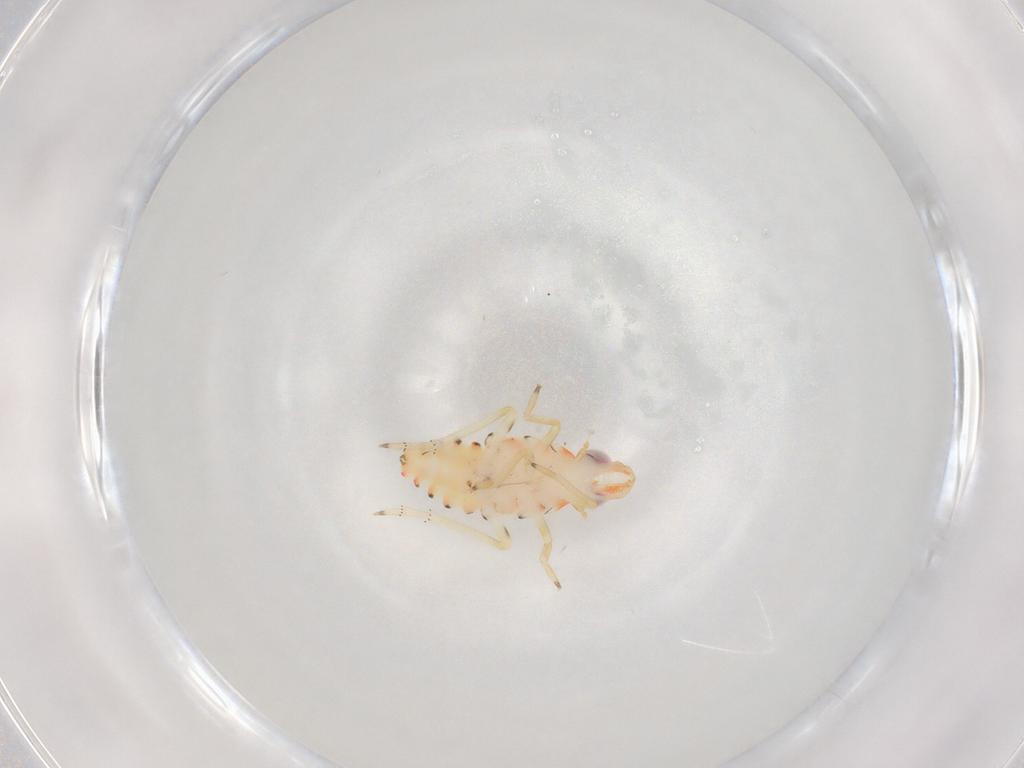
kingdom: Animalia
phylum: Arthropoda
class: Insecta
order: Hemiptera
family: Tropiduchidae
